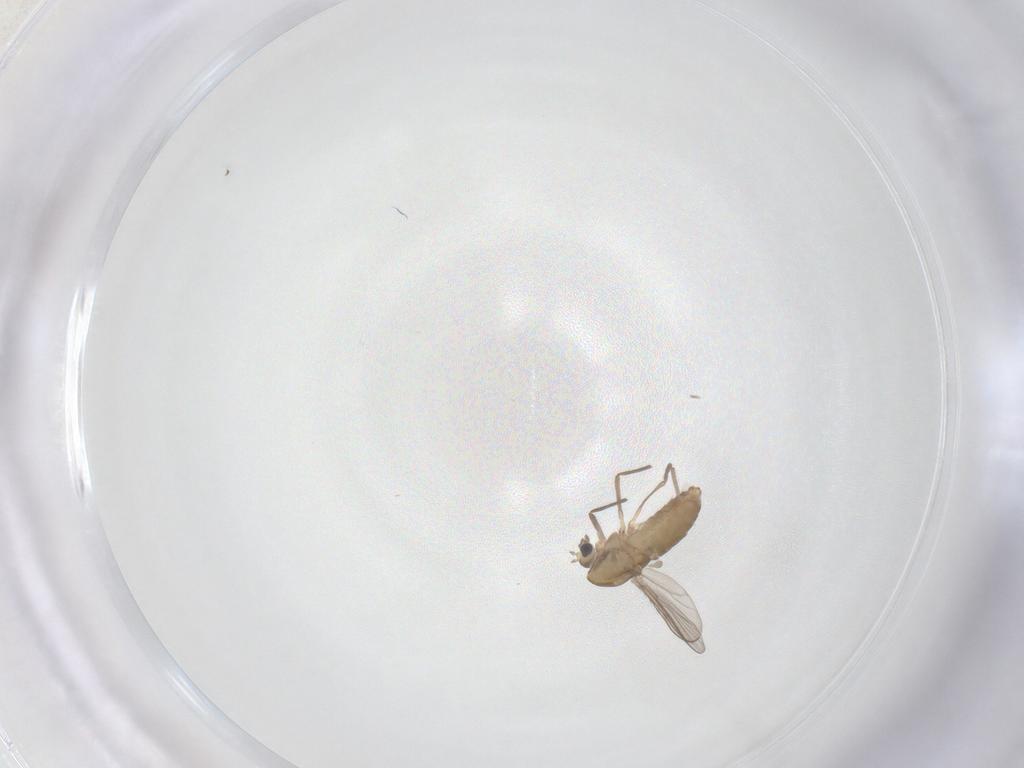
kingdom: Animalia
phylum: Arthropoda
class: Insecta
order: Diptera
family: Chironomidae
